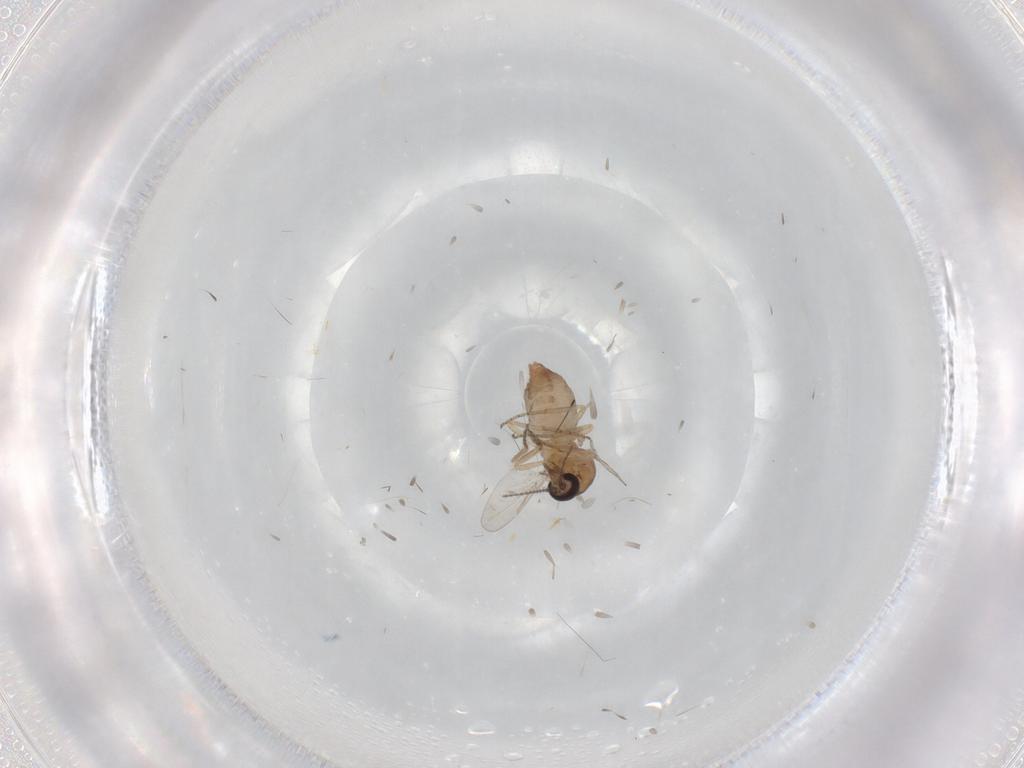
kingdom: Animalia
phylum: Arthropoda
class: Insecta
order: Diptera
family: Ceratopogonidae
